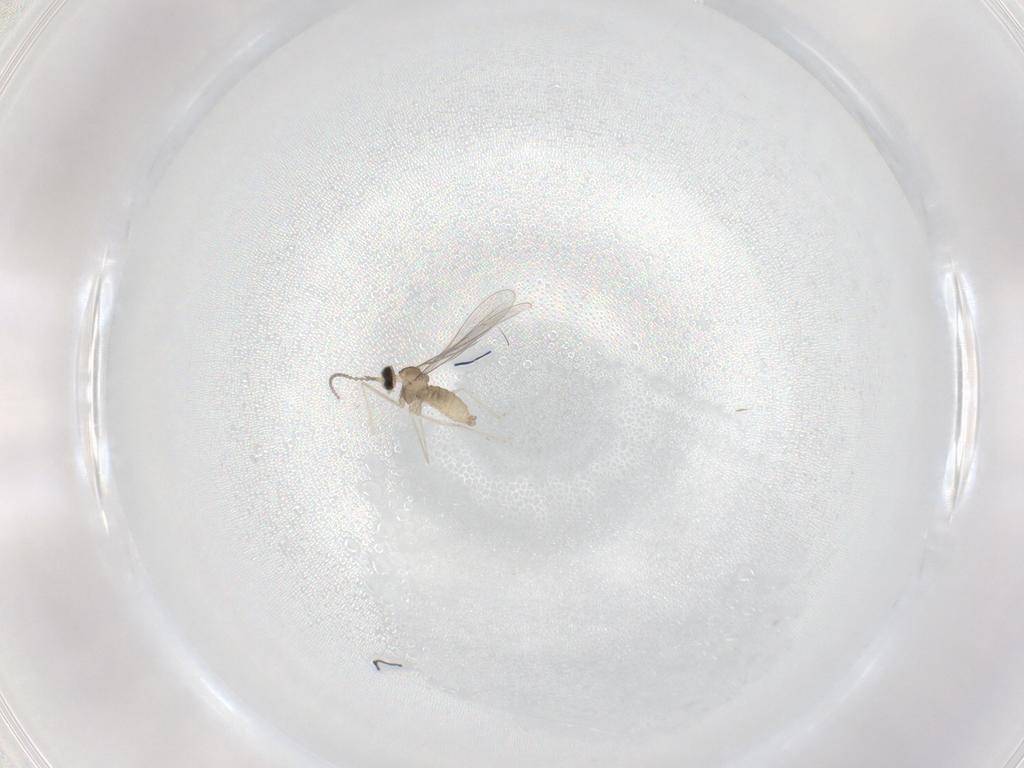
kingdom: Animalia
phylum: Arthropoda
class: Insecta
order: Diptera
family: Cecidomyiidae
